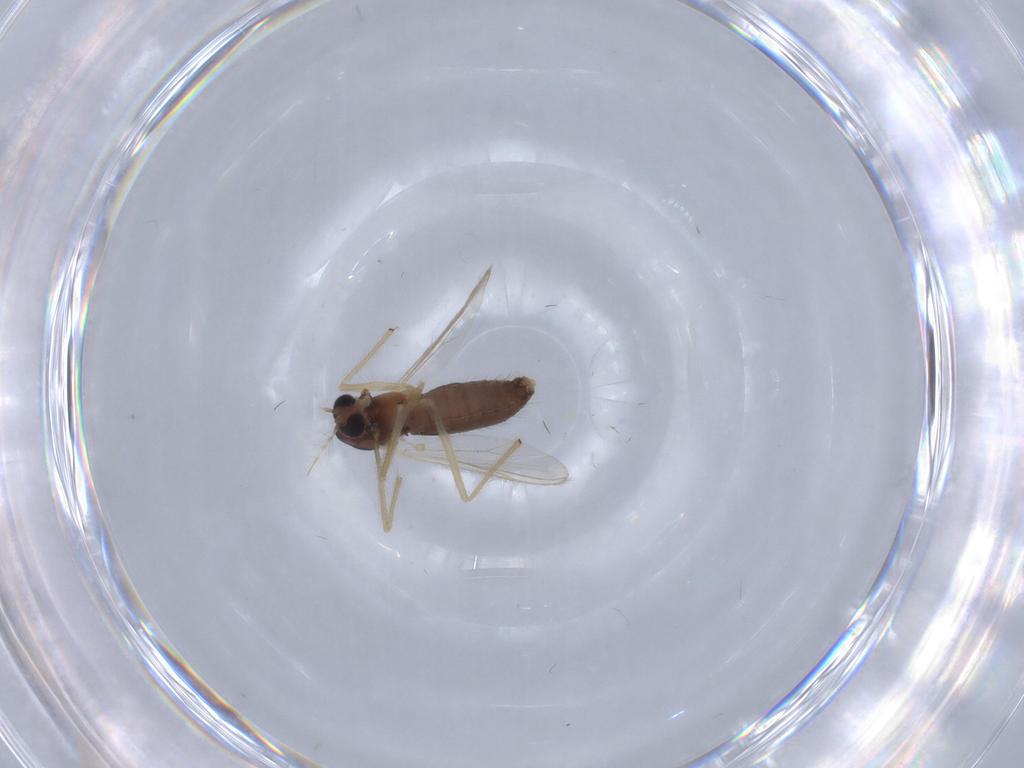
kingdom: Animalia
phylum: Arthropoda
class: Insecta
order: Diptera
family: Chironomidae
